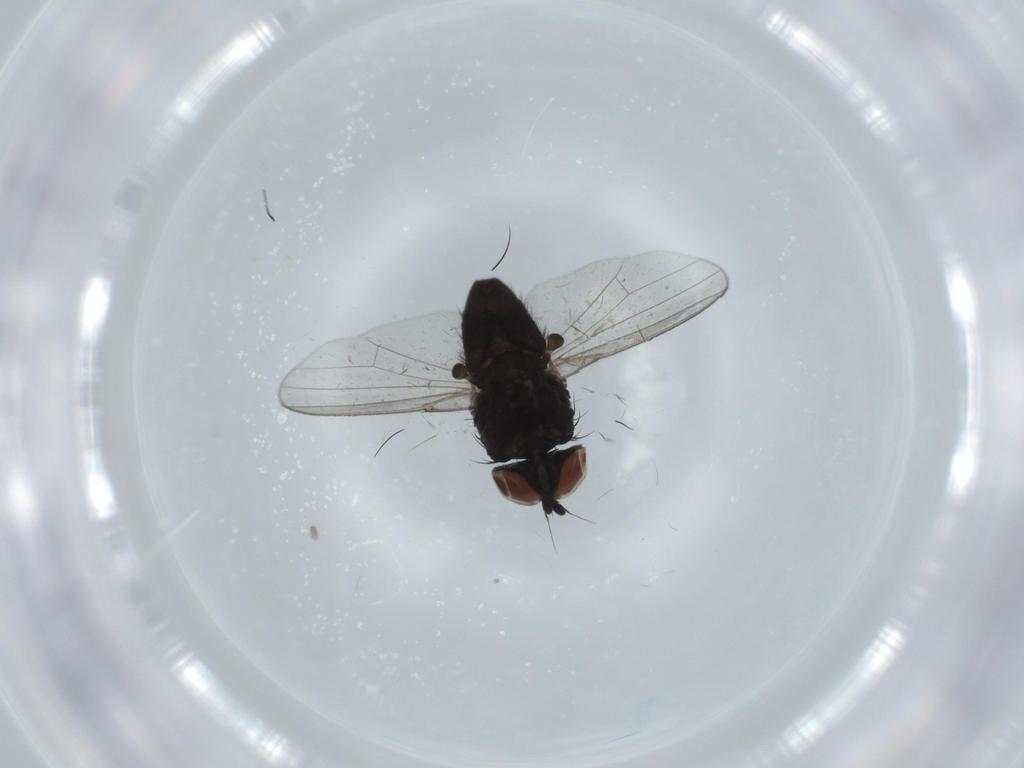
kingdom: Animalia
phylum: Arthropoda
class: Insecta
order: Diptera
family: Milichiidae
